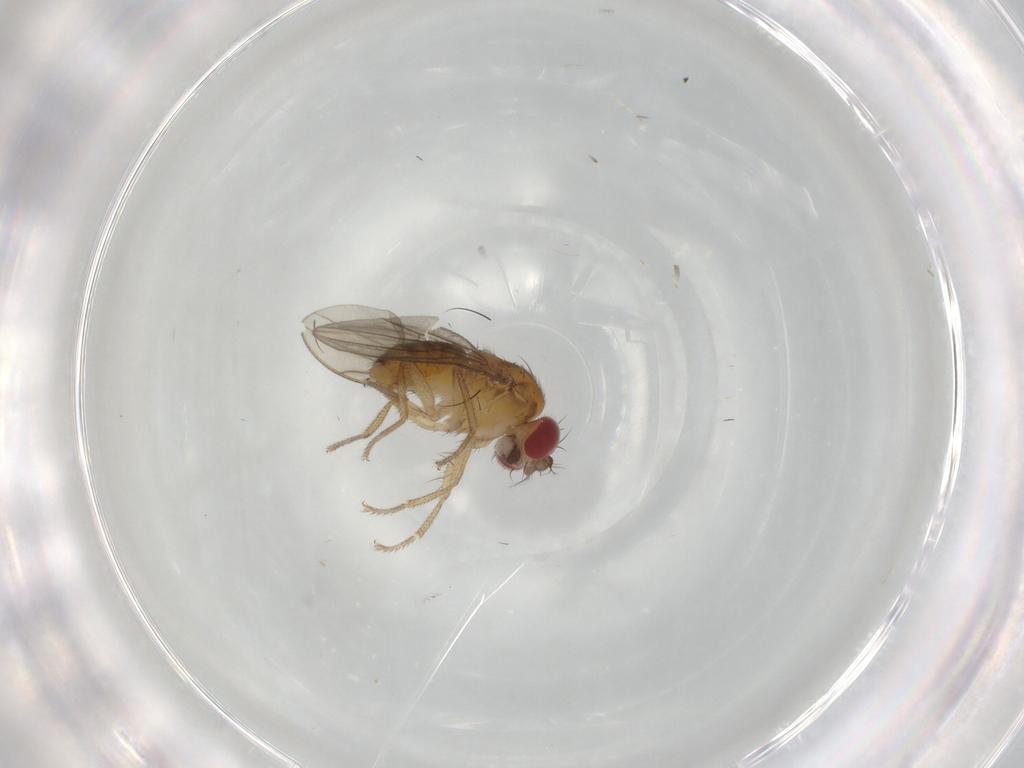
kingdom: Animalia
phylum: Arthropoda
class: Insecta
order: Diptera
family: Drosophilidae
